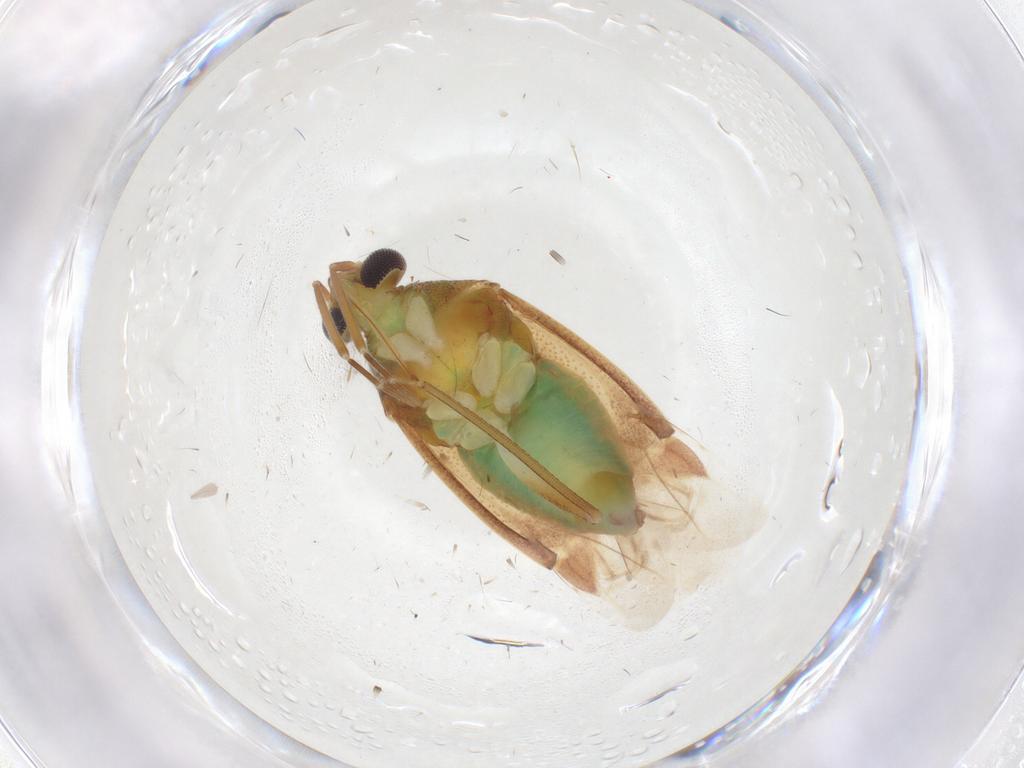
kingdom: Animalia
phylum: Arthropoda
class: Insecta
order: Hemiptera
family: Miridae
